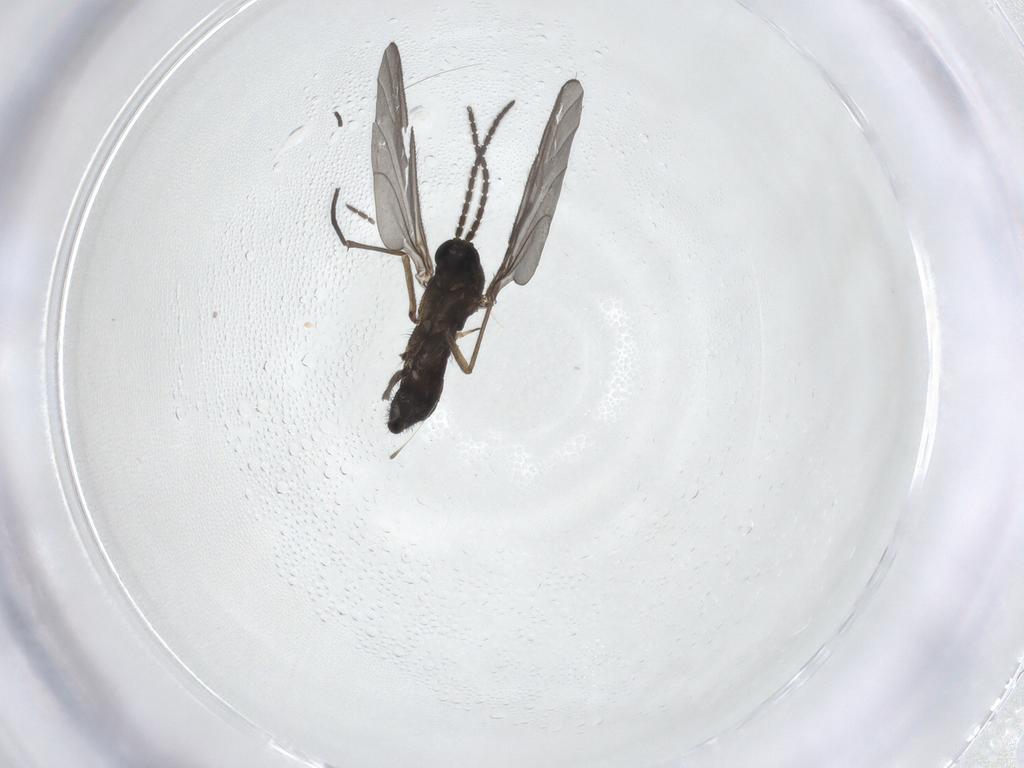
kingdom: Animalia
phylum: Arthropoda
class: Insecta
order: Diptera
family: Sciaridae
